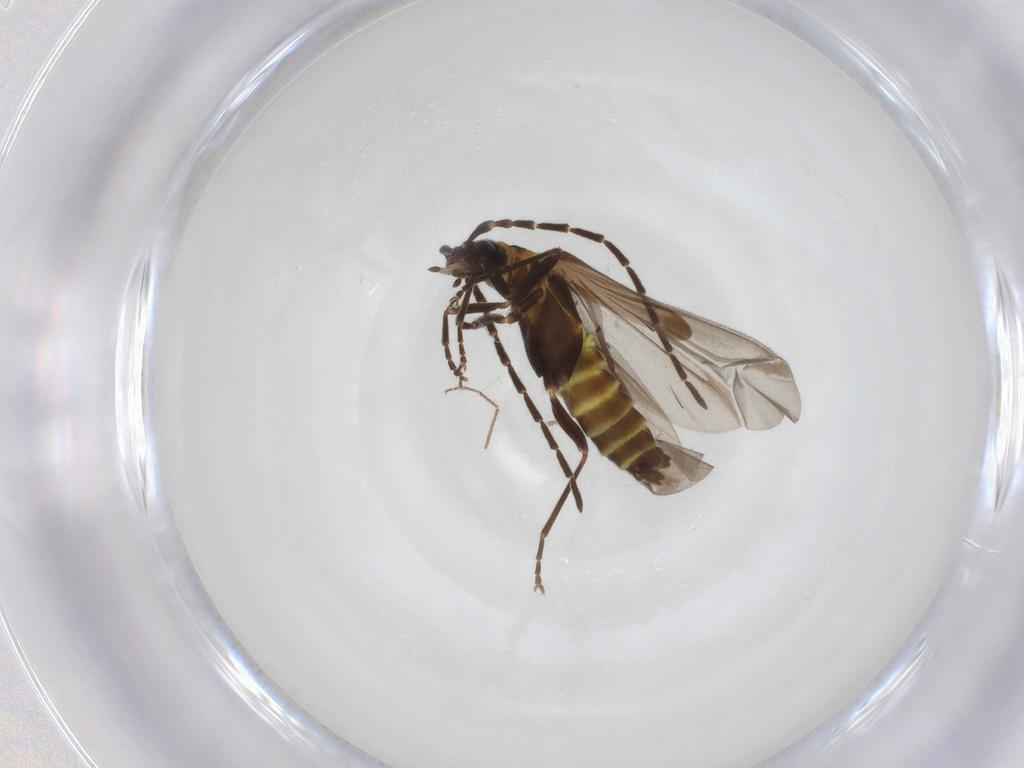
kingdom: Animalia
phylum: Arthropoda
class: Insecta
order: Coleoptera
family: Cantharidae
